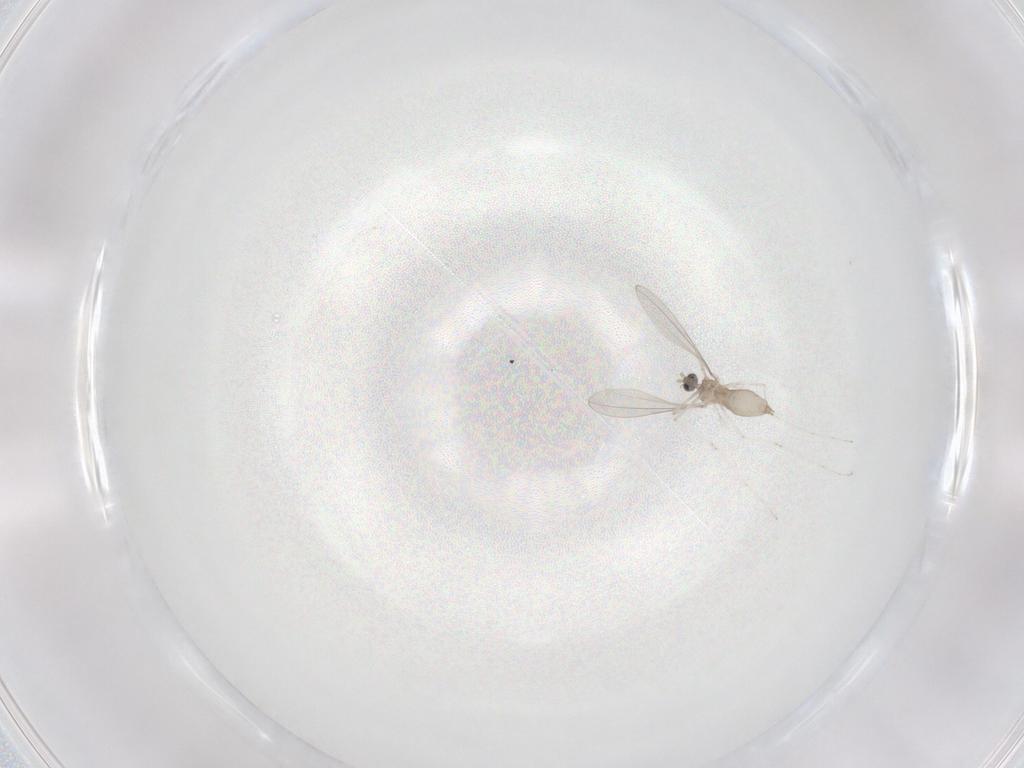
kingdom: Animalia
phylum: Arthropoda
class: Insecta
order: Diptera
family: Cecidomyiidae
